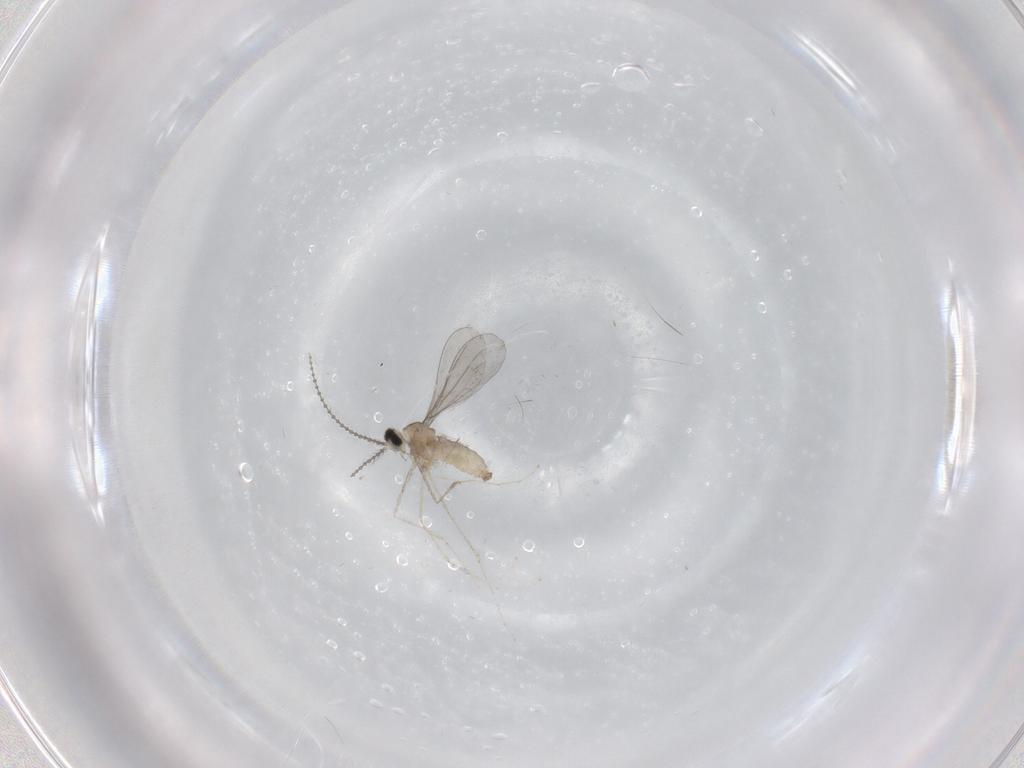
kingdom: Animalia
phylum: Arthropoda
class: Insecta
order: Diptera
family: Cecidomyiidae
